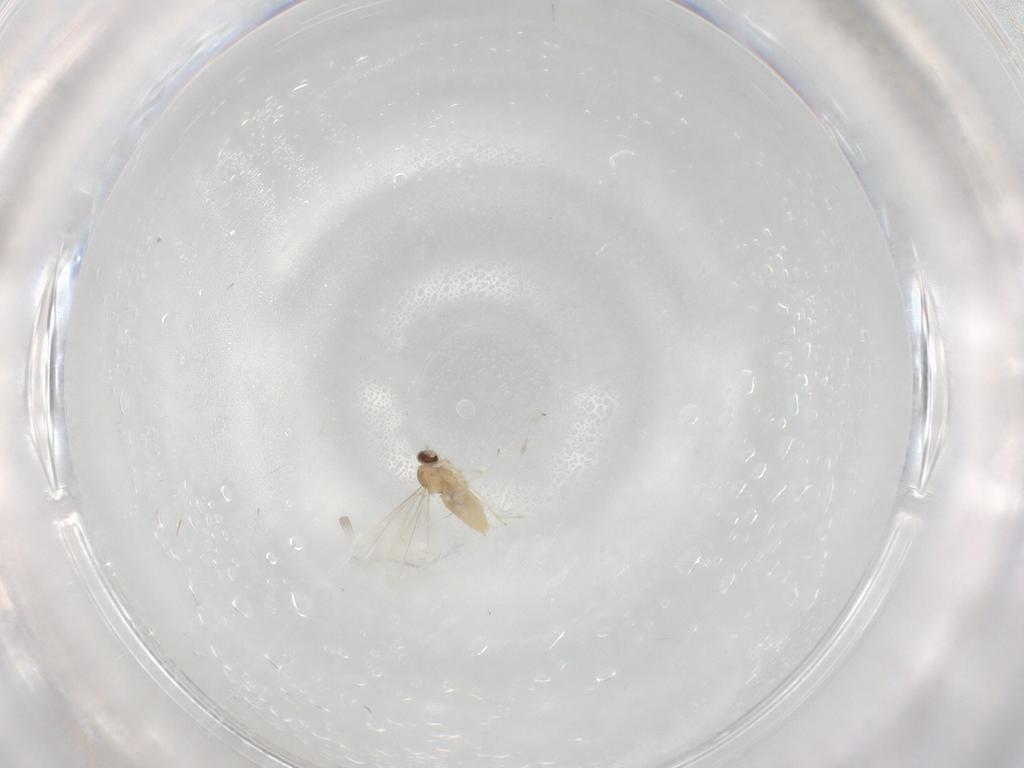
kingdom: Animalia
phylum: Arthropoda
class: Insecta
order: Diptera
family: Cecidomyiidae
